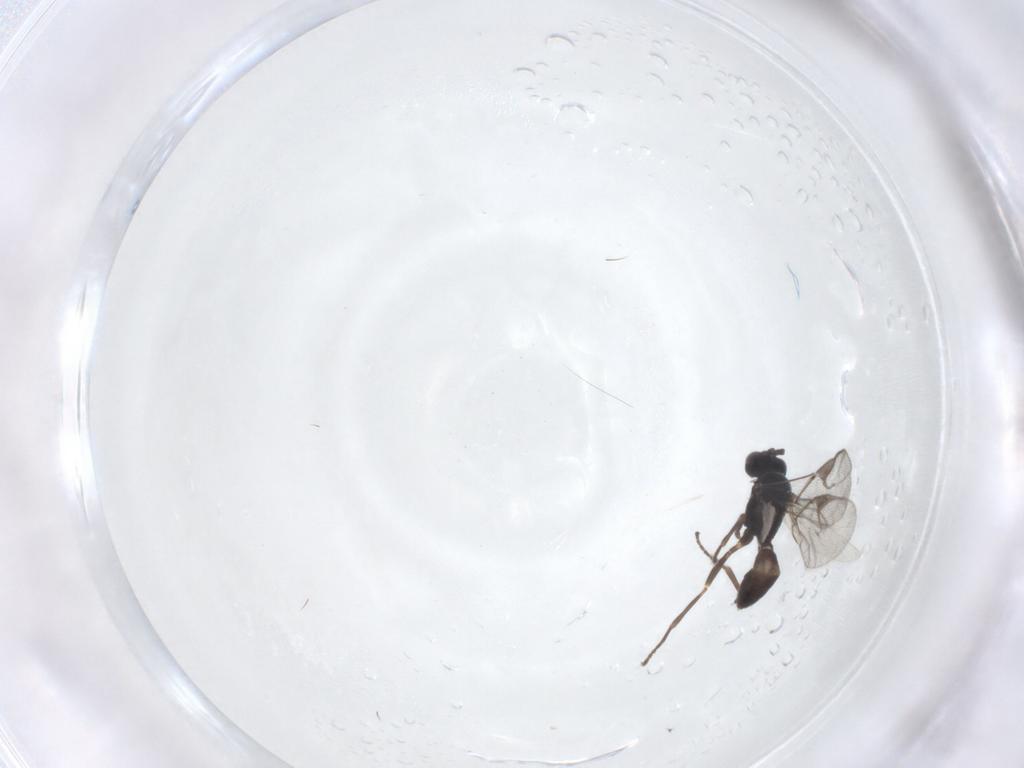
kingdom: Animalia
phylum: Arthropoda
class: Insecta
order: Hymenoptera
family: Braconidae
